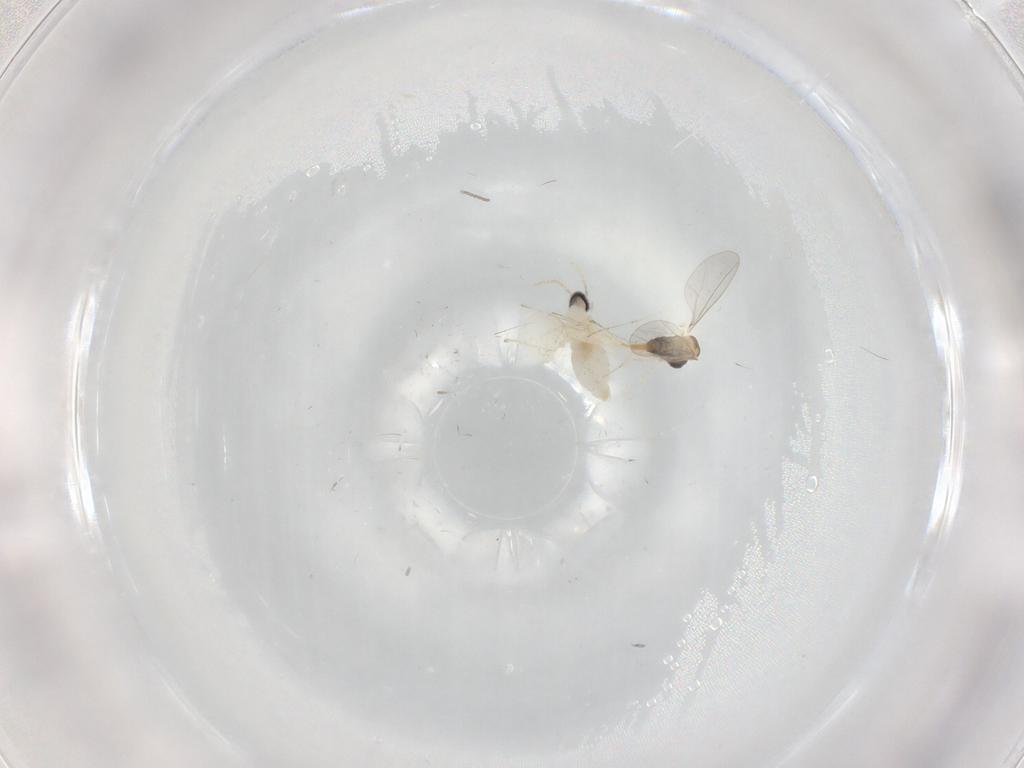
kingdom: Animalia
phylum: Arthropoda
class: Insecta
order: Diptera
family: Cecidomyiidae
